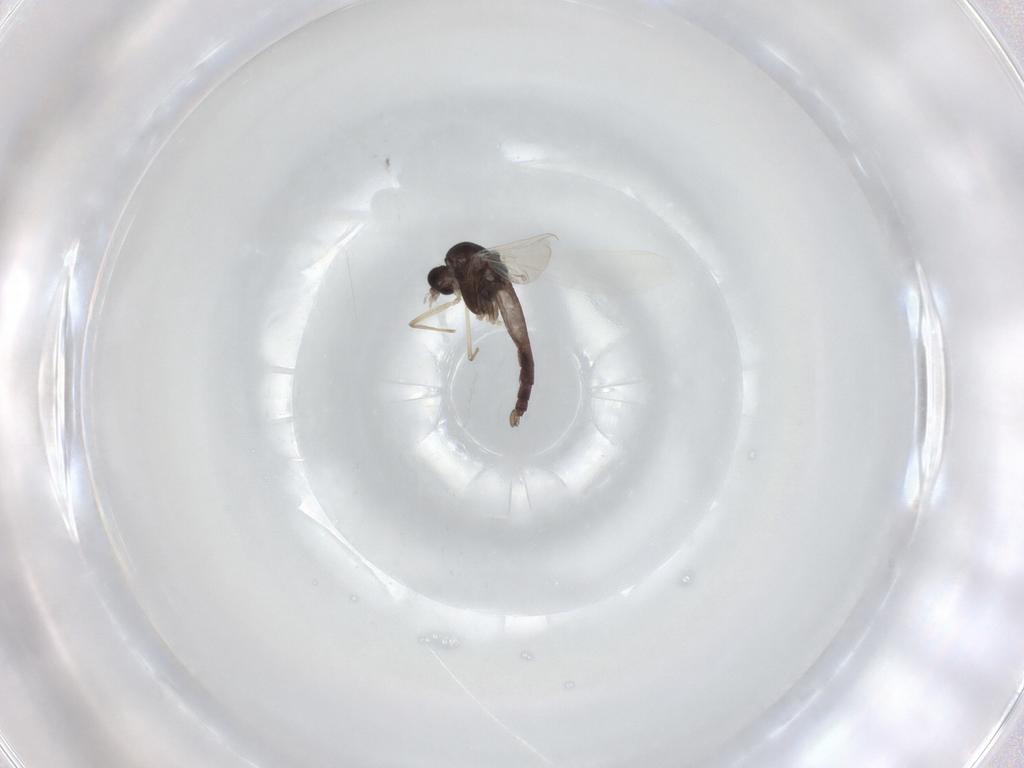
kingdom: Animalia
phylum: Arthropoda
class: Insecta
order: Diptera
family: Chironomidae
